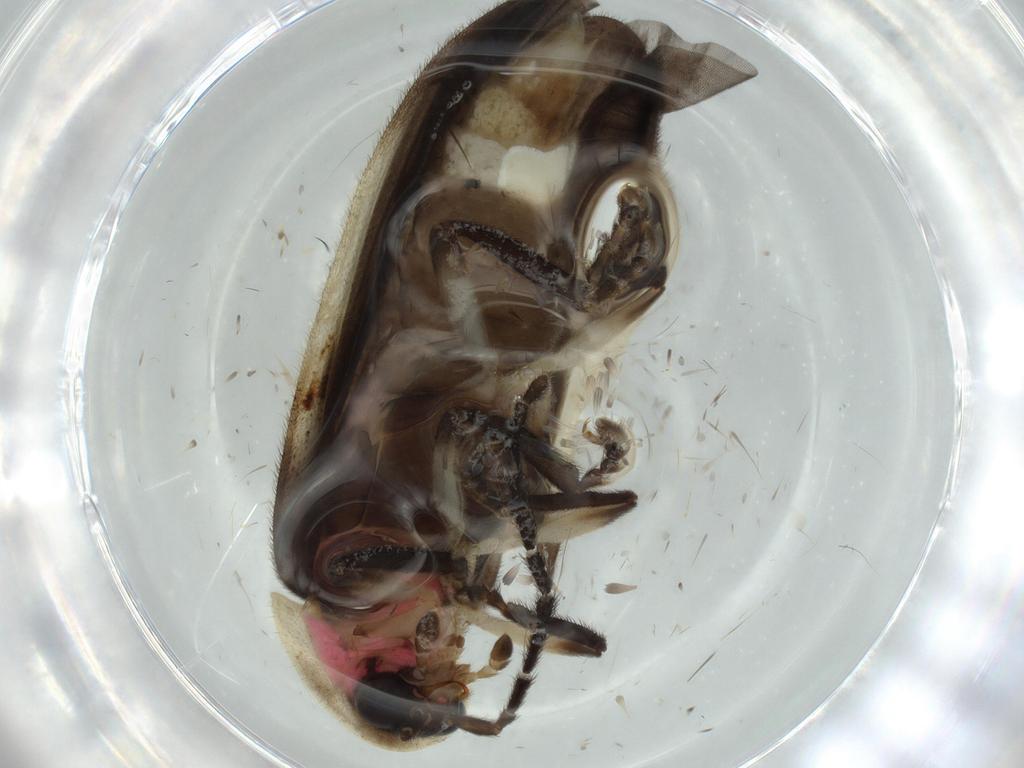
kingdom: Animalia
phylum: Arthropoda
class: Insecta
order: Coleoptera
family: Lampyridae
